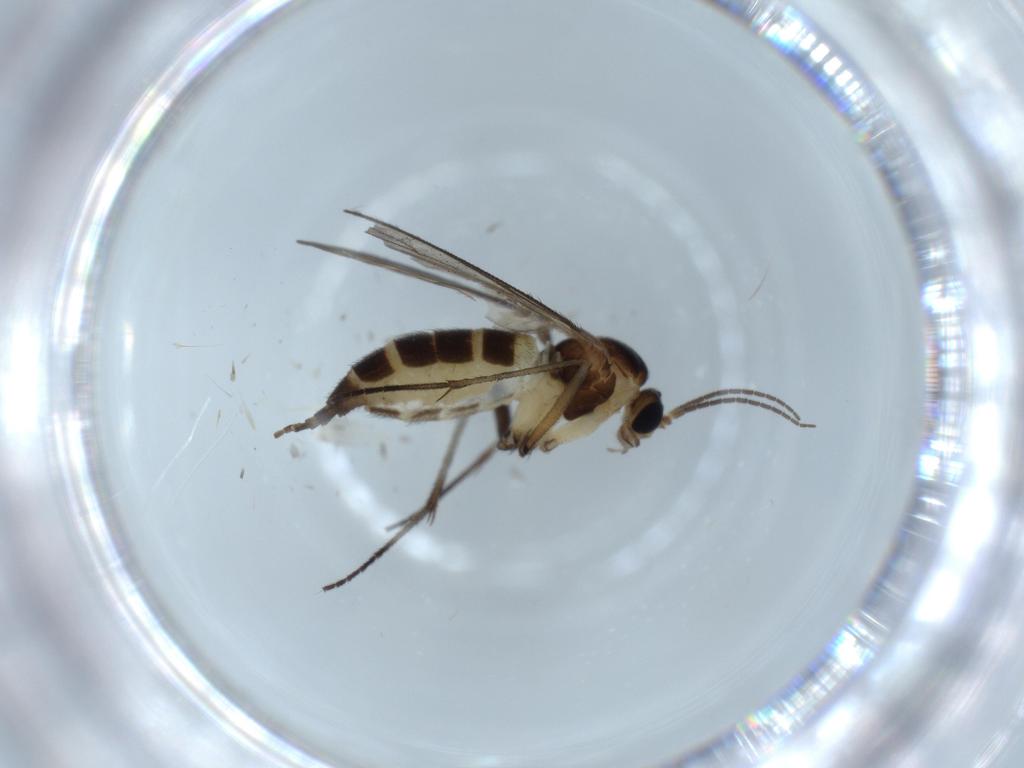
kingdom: Animalia
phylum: Arthropoda
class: Insecta
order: Diptera
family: Sciaridae
